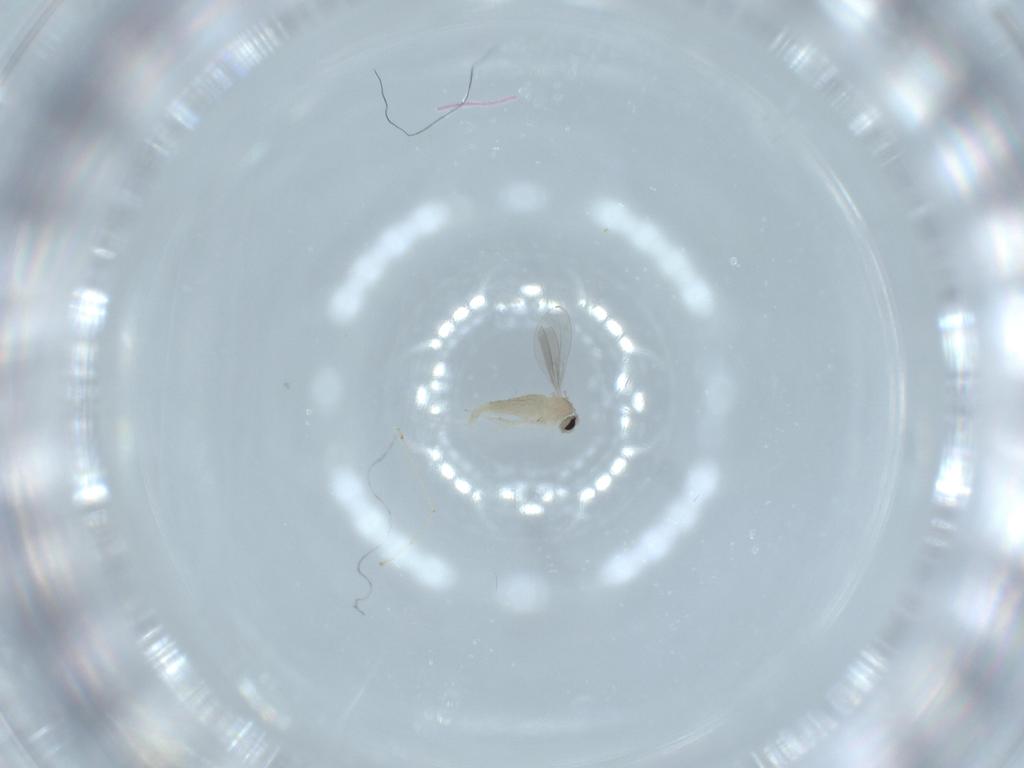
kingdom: Animalia
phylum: Arthropoda
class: Insecta
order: Diptera
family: Cecidomyiidae
